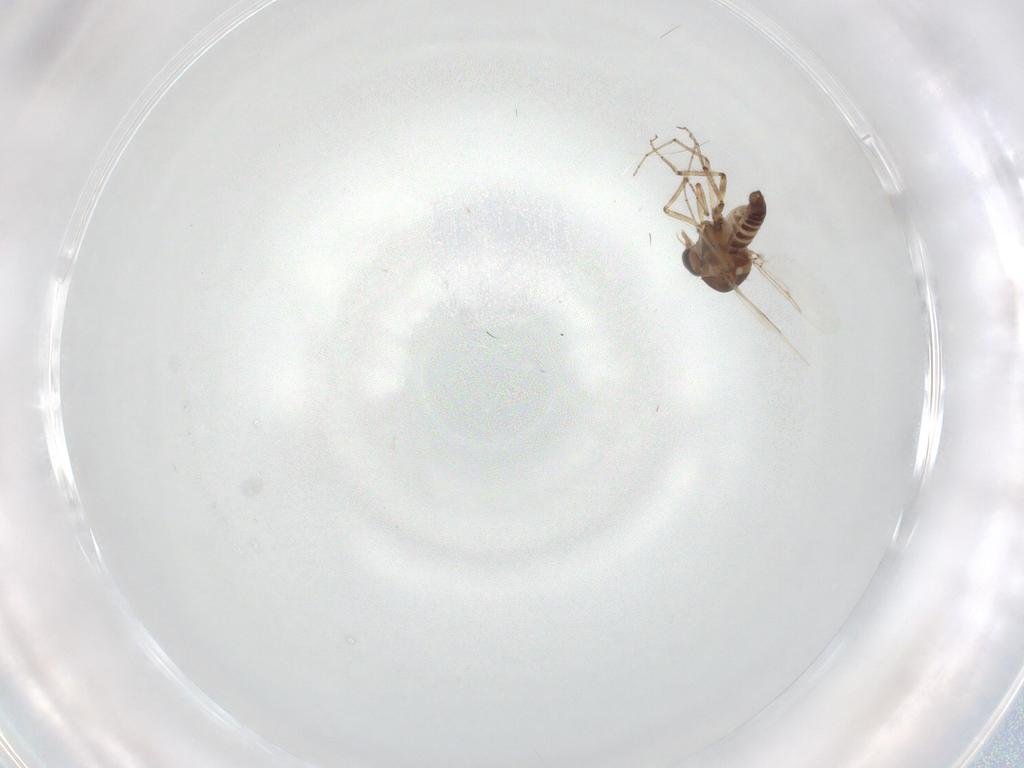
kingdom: Animalia
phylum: Arthropoda
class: Insecta
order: Diptera
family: Ceratopogonidae
